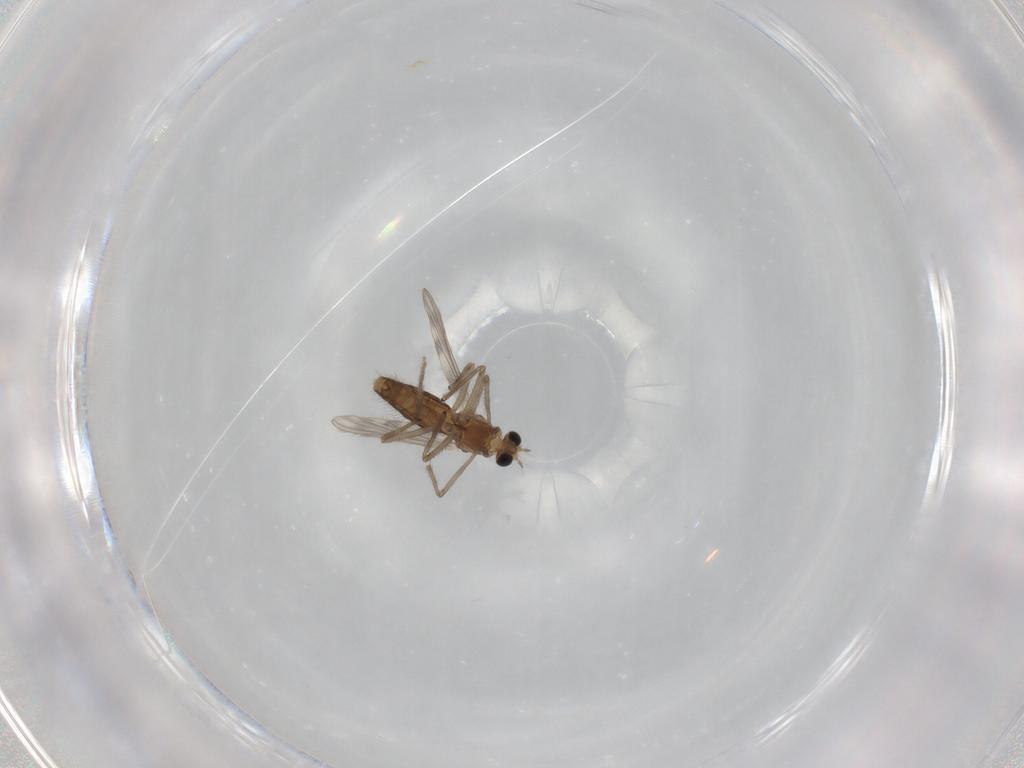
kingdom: Animalia
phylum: Arthropoda
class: Insecta
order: Diptera
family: Chironomidae
